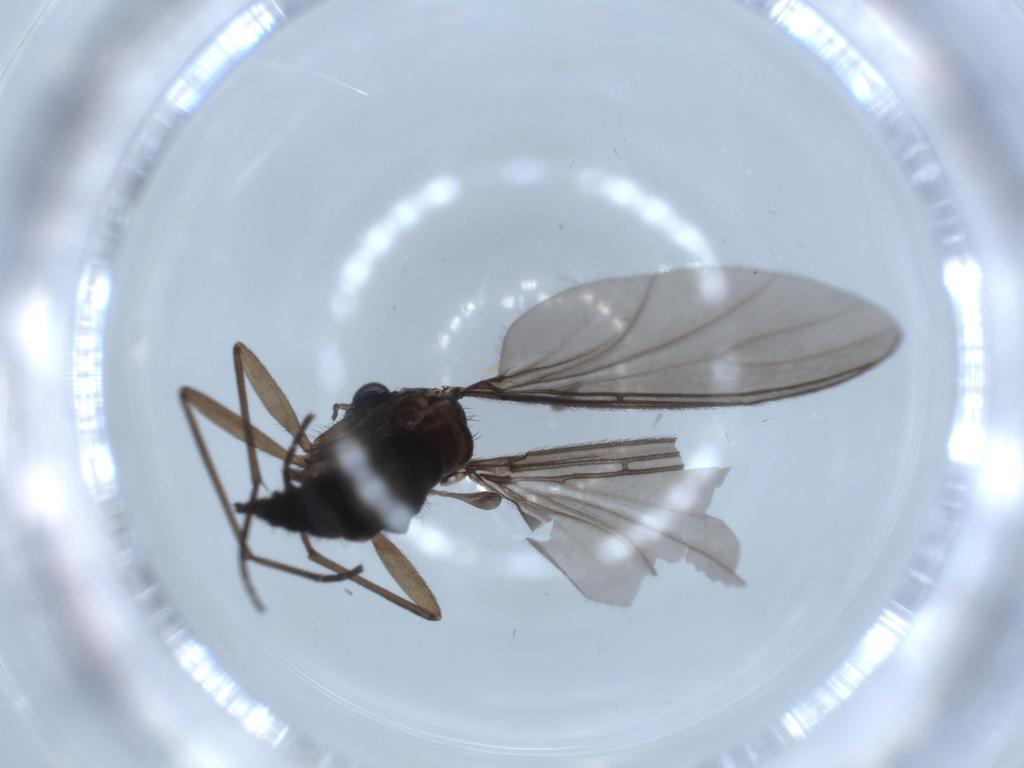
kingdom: Animalia
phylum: Arthropoda
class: Insecta
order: Diptera
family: Sciaridae
